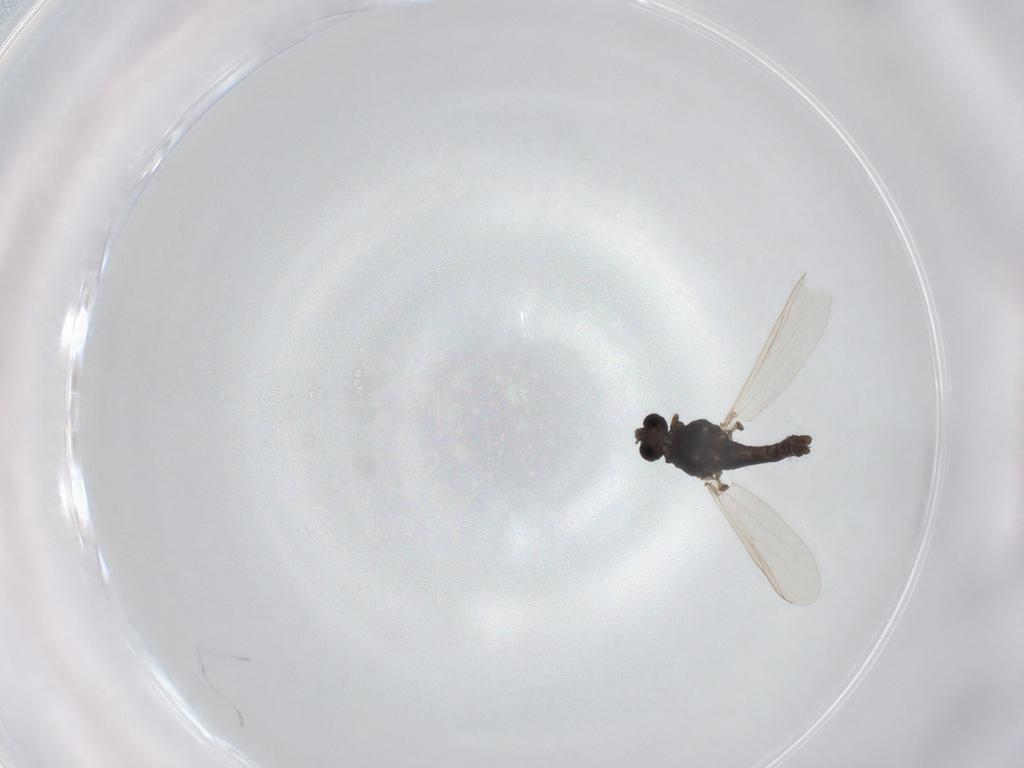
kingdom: Animalia
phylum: Arthropoda
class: Insecta
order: Diptera
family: Chironomidae
